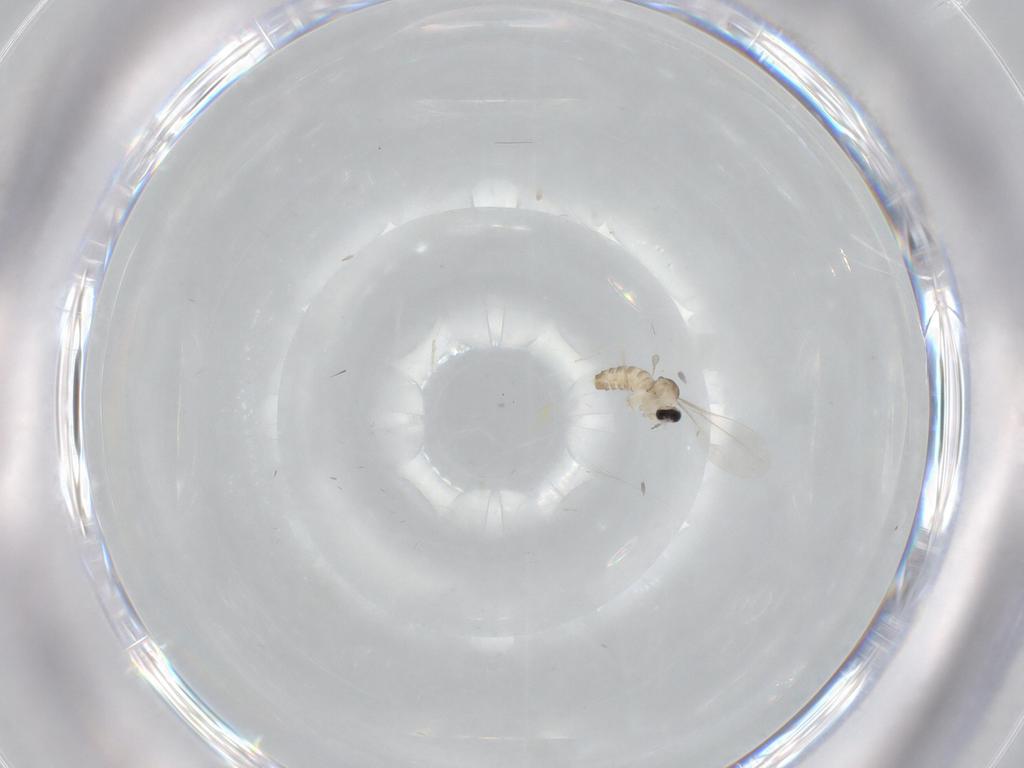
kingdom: Animalia
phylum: Arthropoda
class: Insecta
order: Diptera
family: Cecidomyiidae
